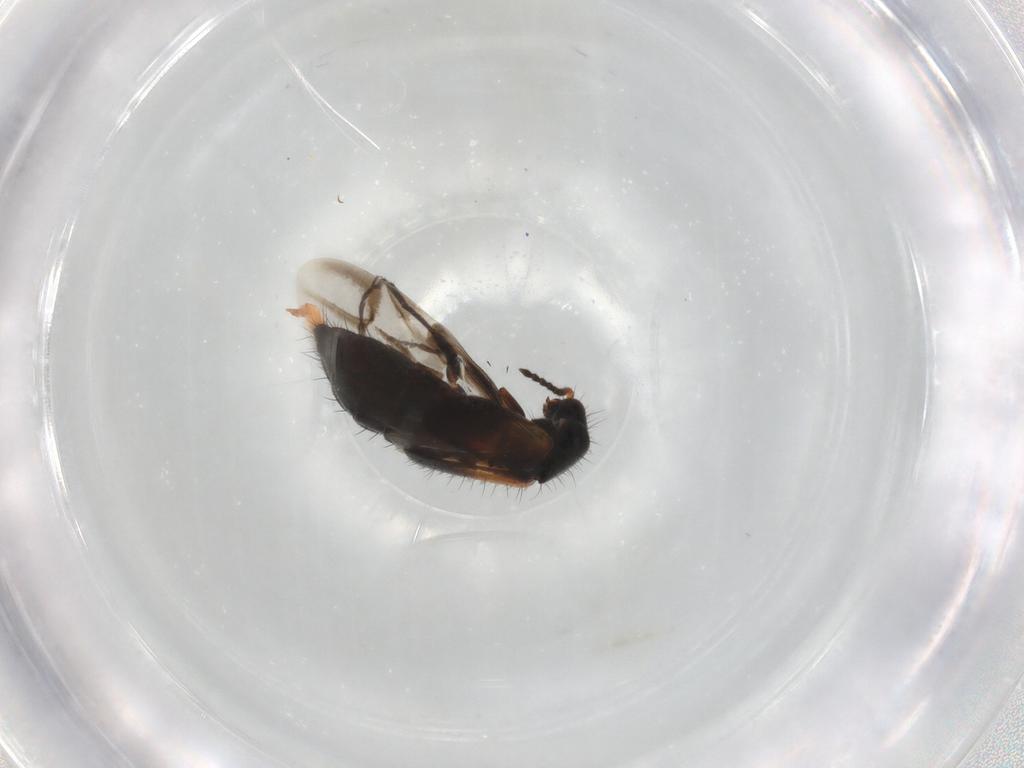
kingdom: Animalia
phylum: Arthropoda
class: Insecta
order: Coleoptera
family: Melyridae
